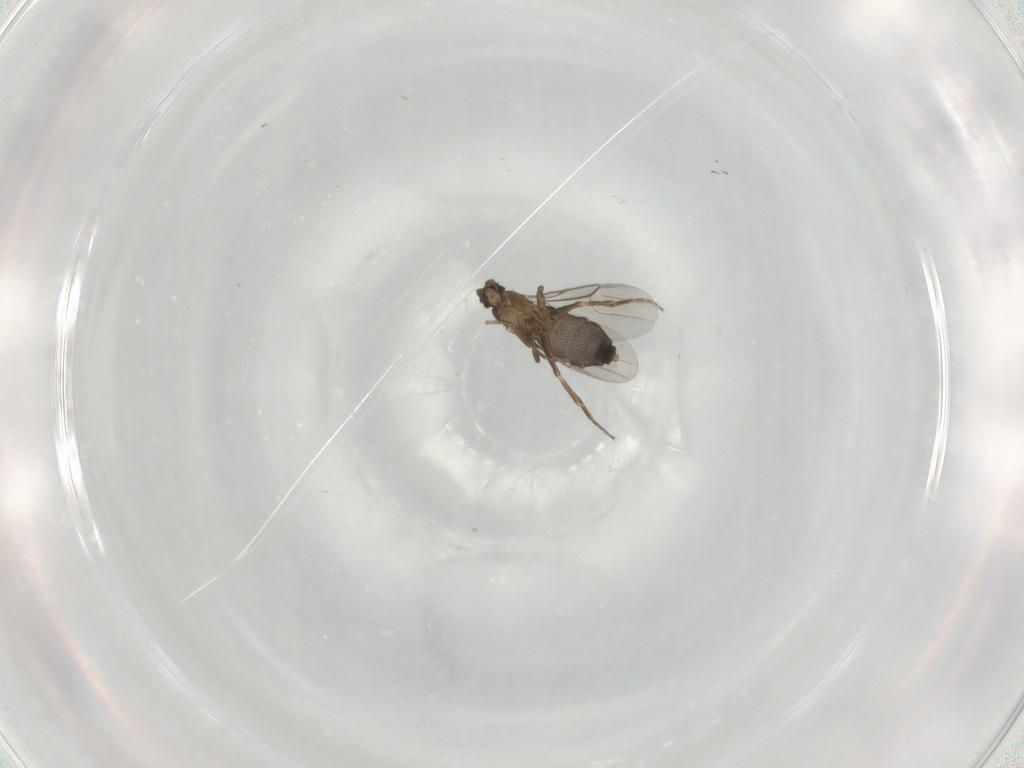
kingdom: Animalia
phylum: Arthropoda
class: Insecta
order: Diptera
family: Phoridae
